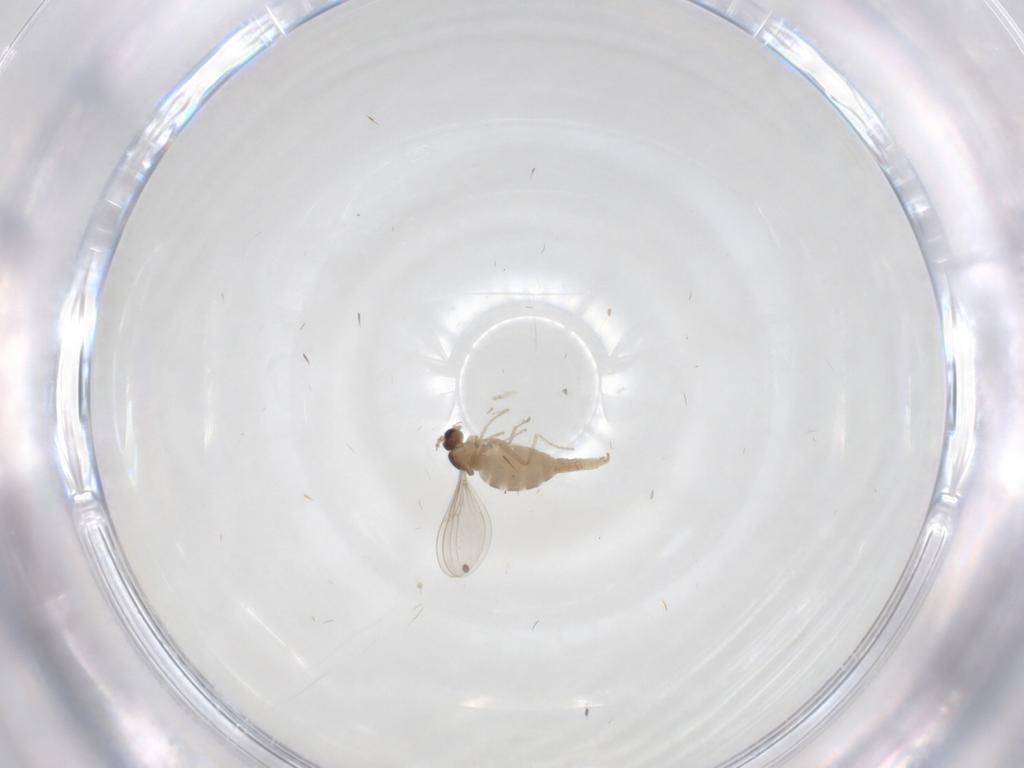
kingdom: Animalia
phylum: Arthropoda
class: Insecta
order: Diptera
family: Cecidomyiidae
